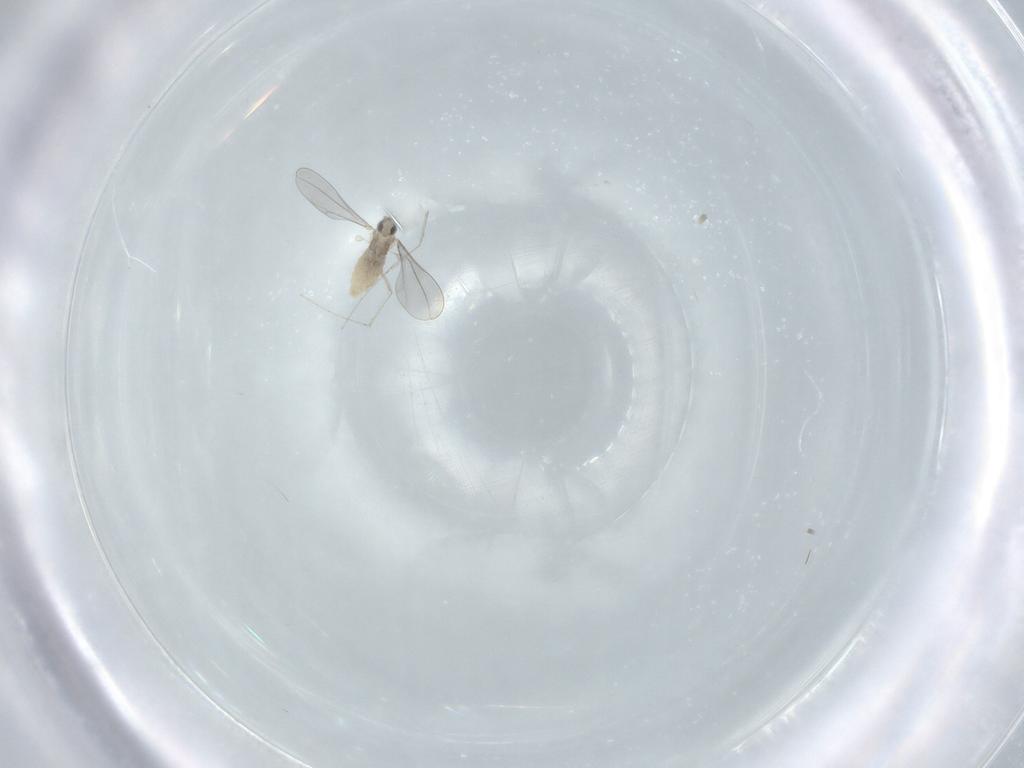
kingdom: Animalia
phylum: Arthropoda
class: Insecta
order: Diptera
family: Cecidomyiidae
